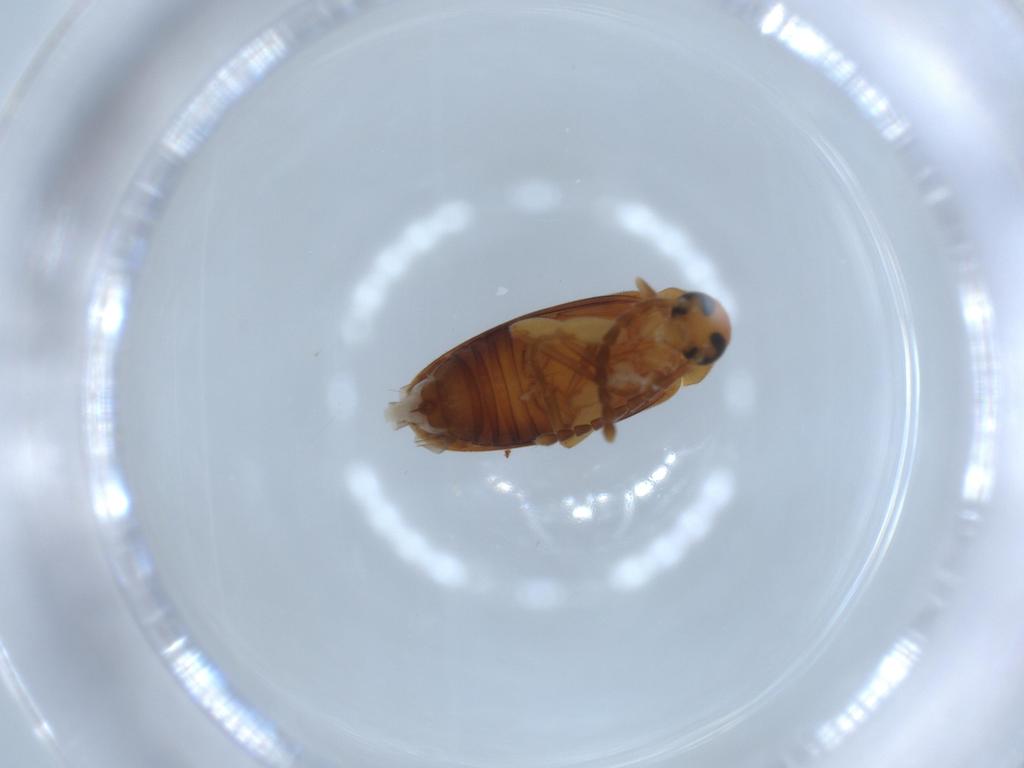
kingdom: Animalia
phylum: Arthropoda
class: Insecta
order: Coleoptera
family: Scraptiidae
